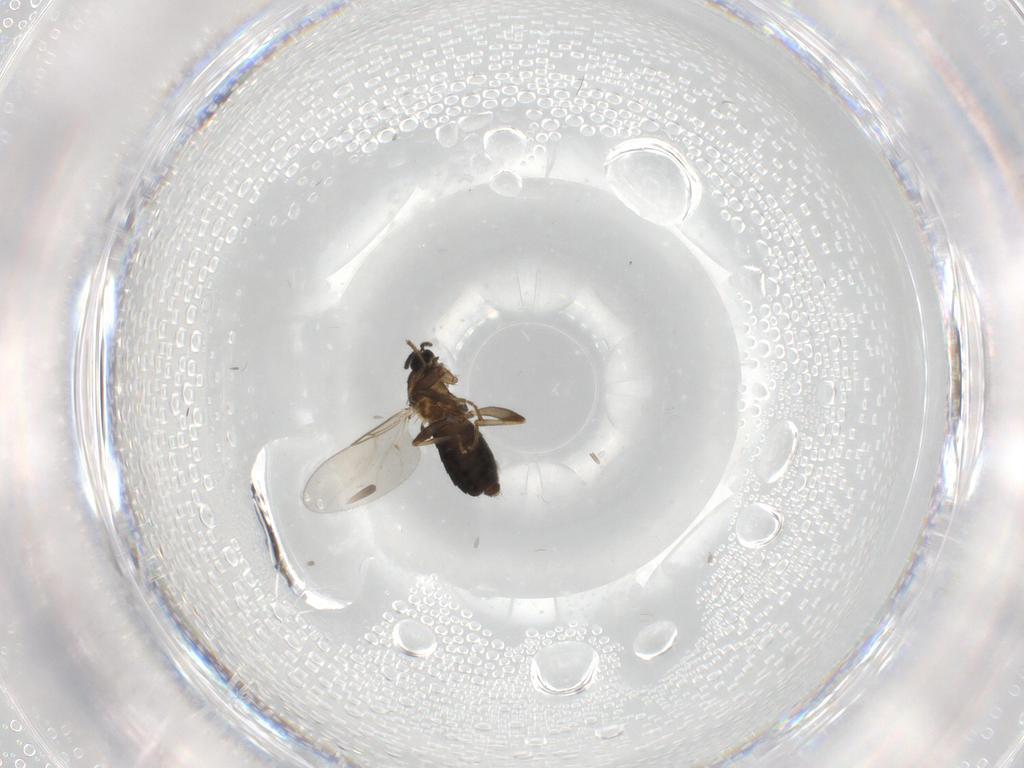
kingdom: Animalia
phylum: Arthropoda
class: Insecta
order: Diptera
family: Scatopsidae
